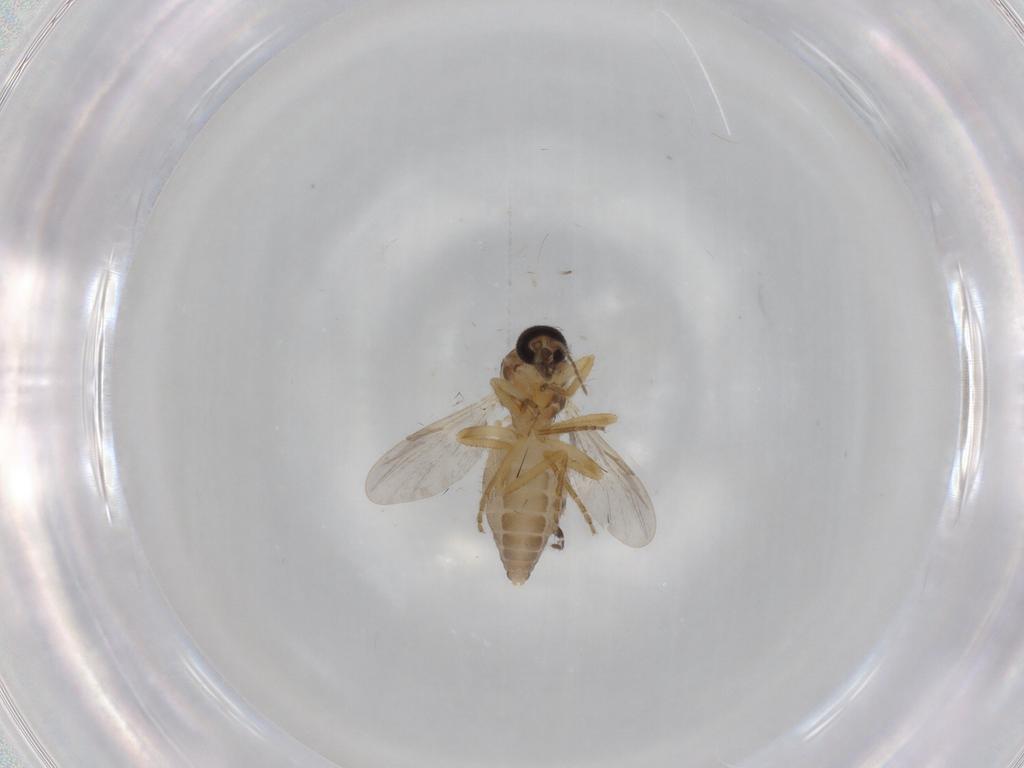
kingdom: Animalia
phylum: Arthropoda
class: Insecta
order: Diptera
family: Ceratopogonidae
